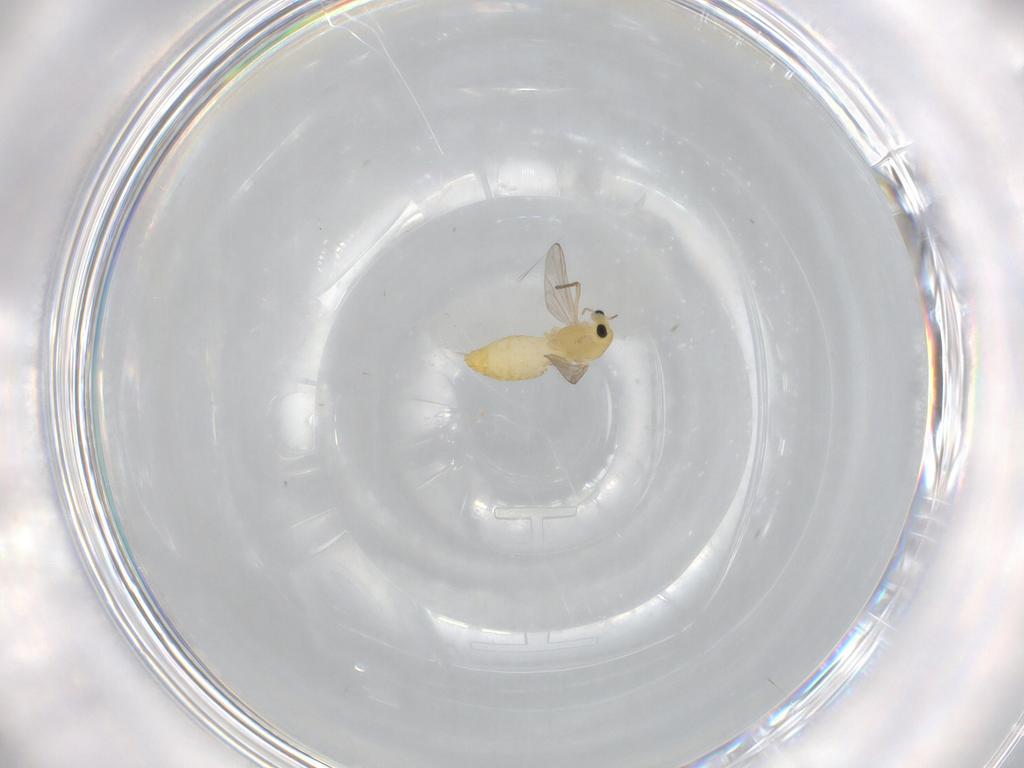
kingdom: Animalia
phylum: Arthropoda
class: Insecta
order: Diptera
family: Chironomidae
